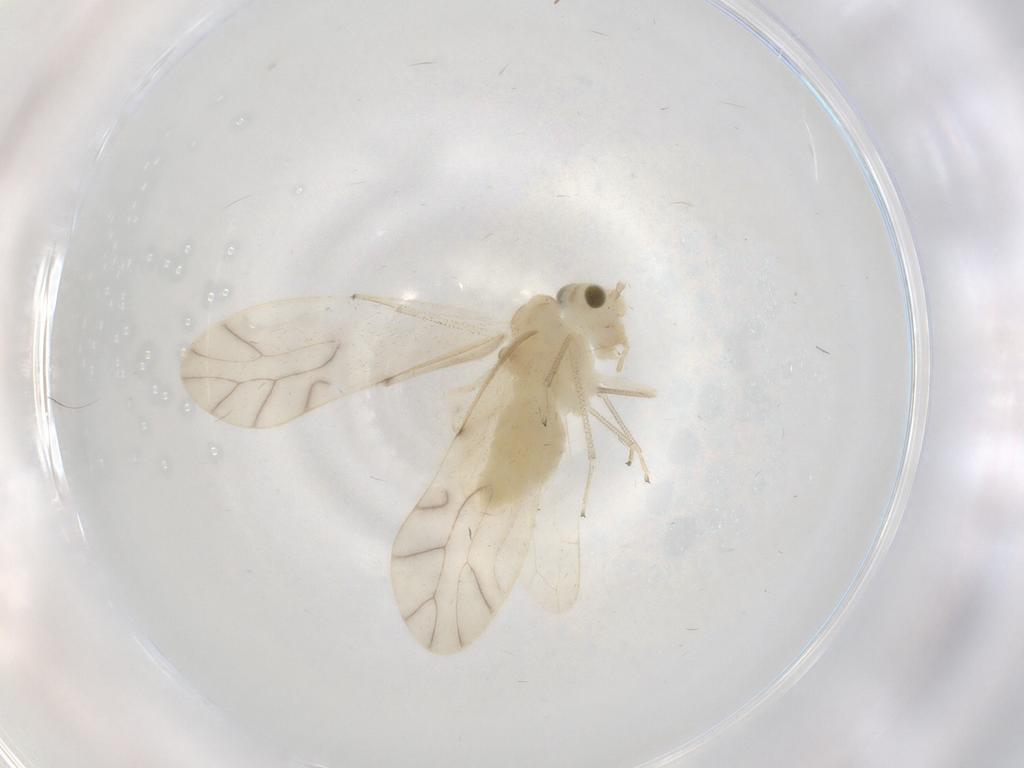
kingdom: Animalia
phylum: Arthropoda
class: Insecta
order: Psocodea
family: Caeciliusidae
